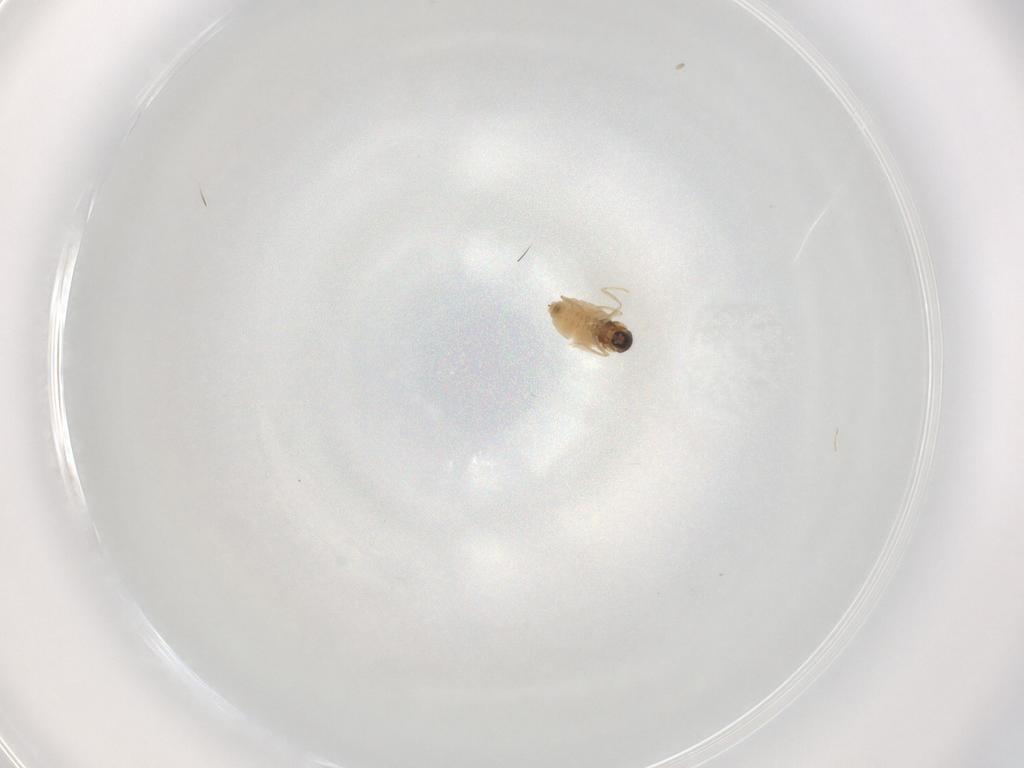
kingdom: Animalia
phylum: Arthropoda
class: Insecta
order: Diptera
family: Cecidomyiidae
